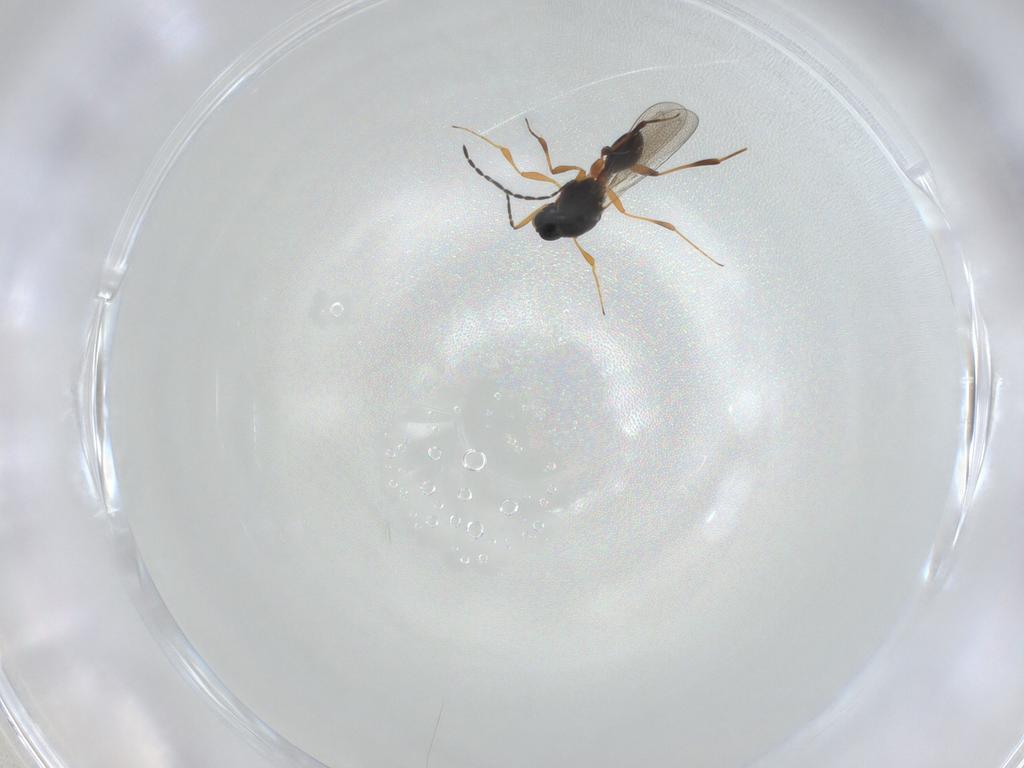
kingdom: Animalia
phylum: Arthropoda
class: Insecta
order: Hymenoptera
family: Platygastridae
